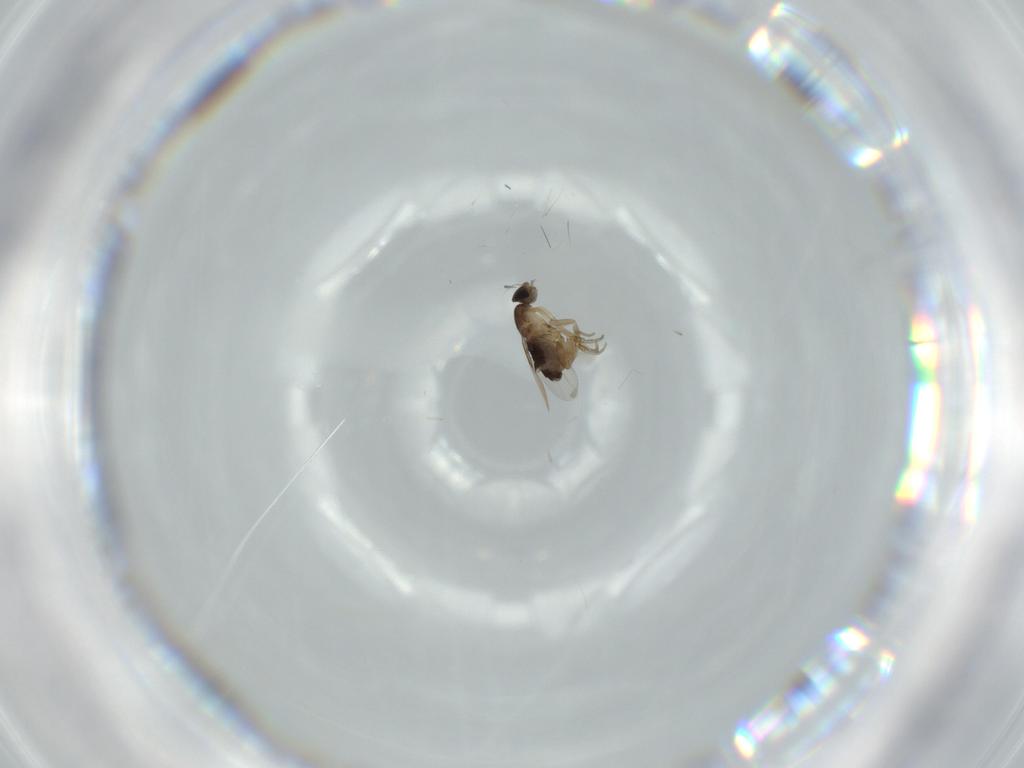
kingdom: Animalia
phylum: Arthropoda
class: Insecta
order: Diptera
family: Phoridae
